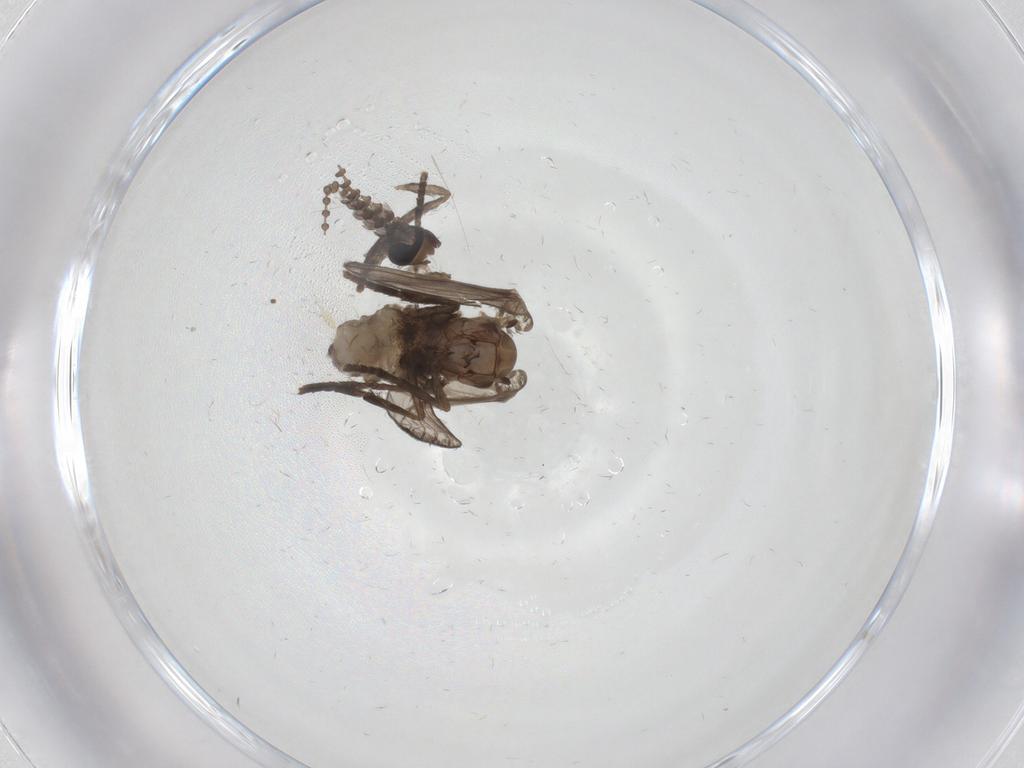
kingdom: Animalia
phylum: Arthropoda
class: Insecta
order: Diptera
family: Psychodidae
